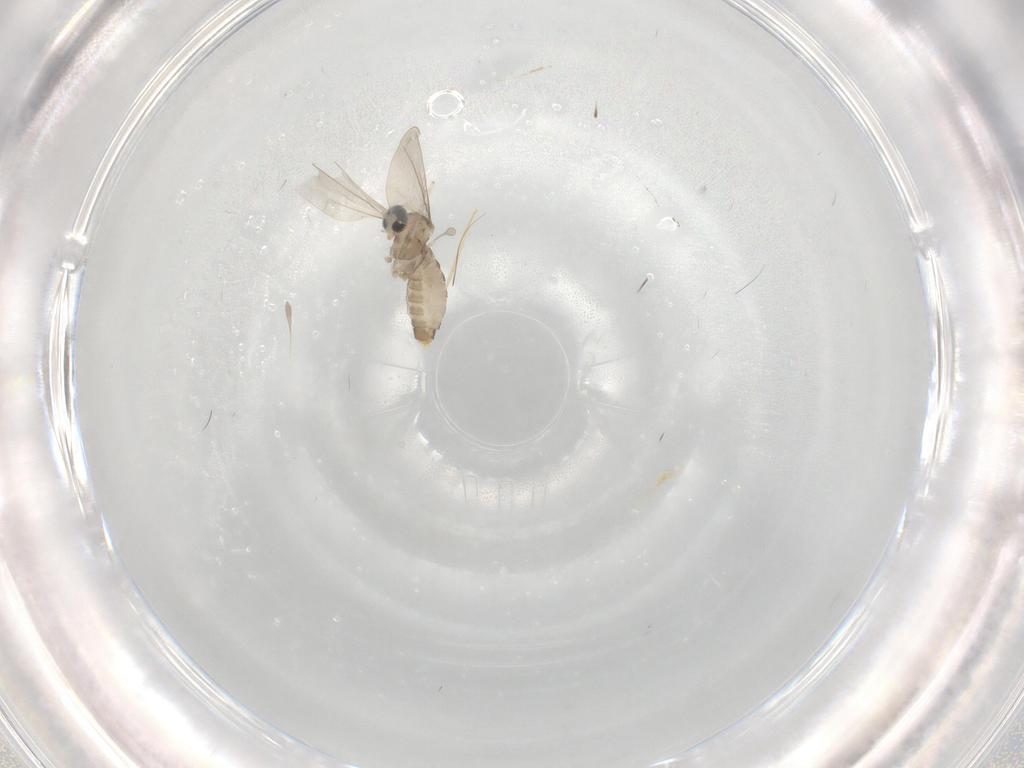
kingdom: Animalia
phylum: Arthropoda
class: Insecta
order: Diptera
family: Cecidomyiidae
